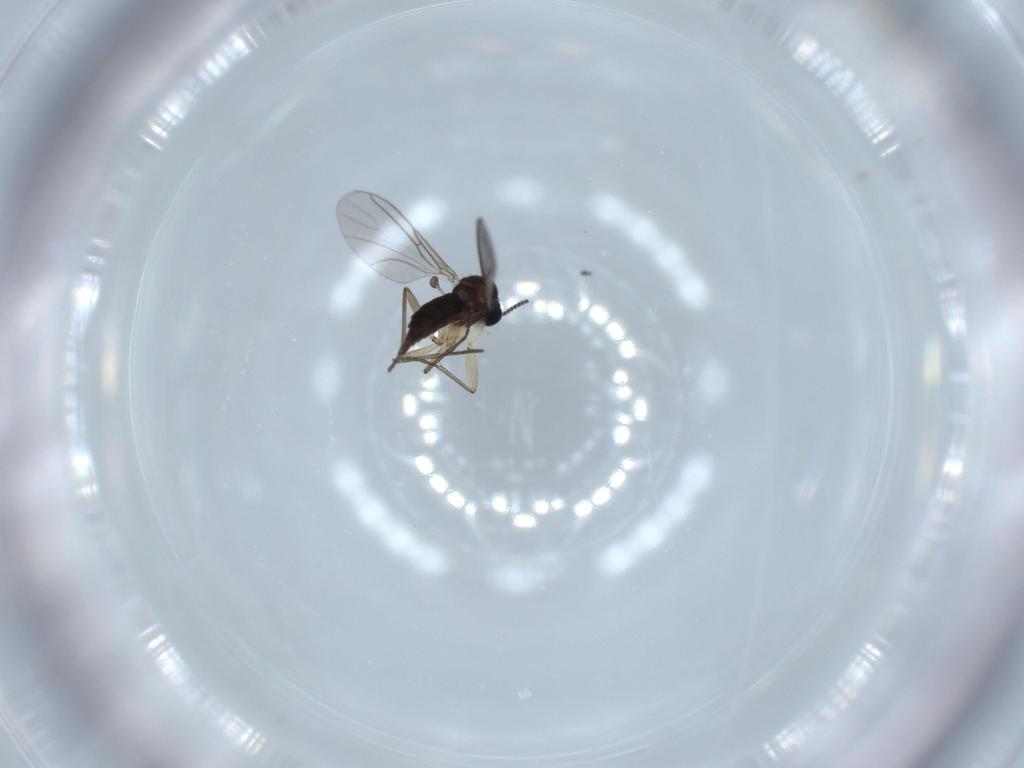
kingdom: Animalia
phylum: Arthropoda
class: Insecta
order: Diptera
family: Sciaridae
